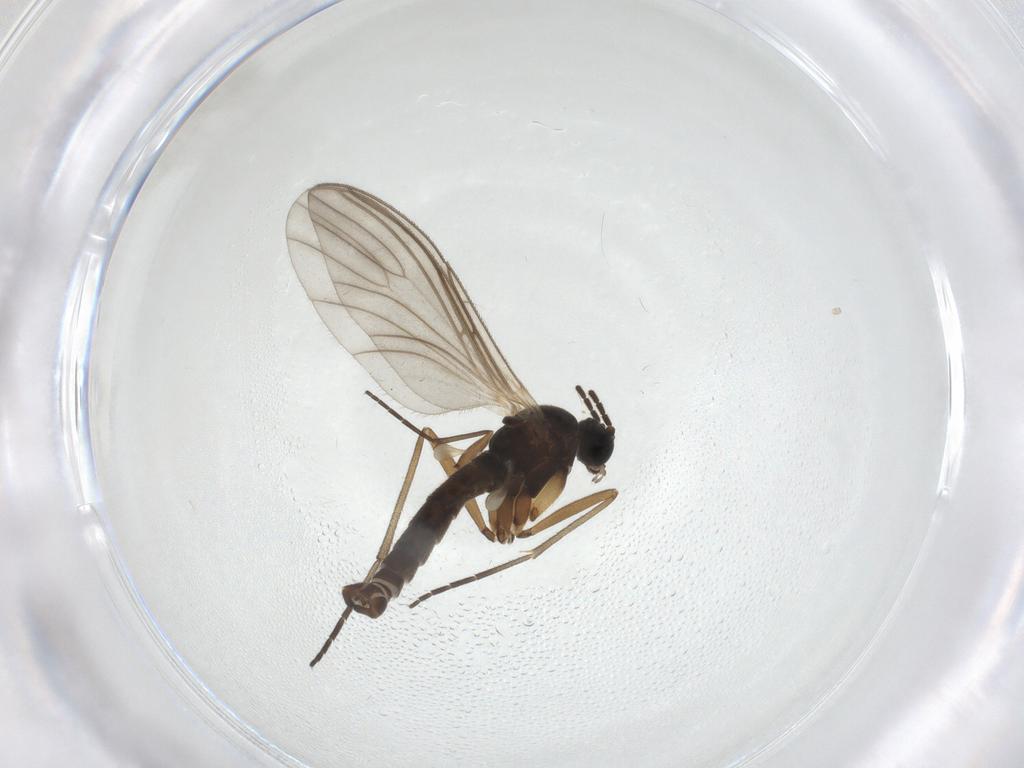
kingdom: Animalia
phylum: Arthropoda
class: Insecta
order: Diptera
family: Sciaridae
